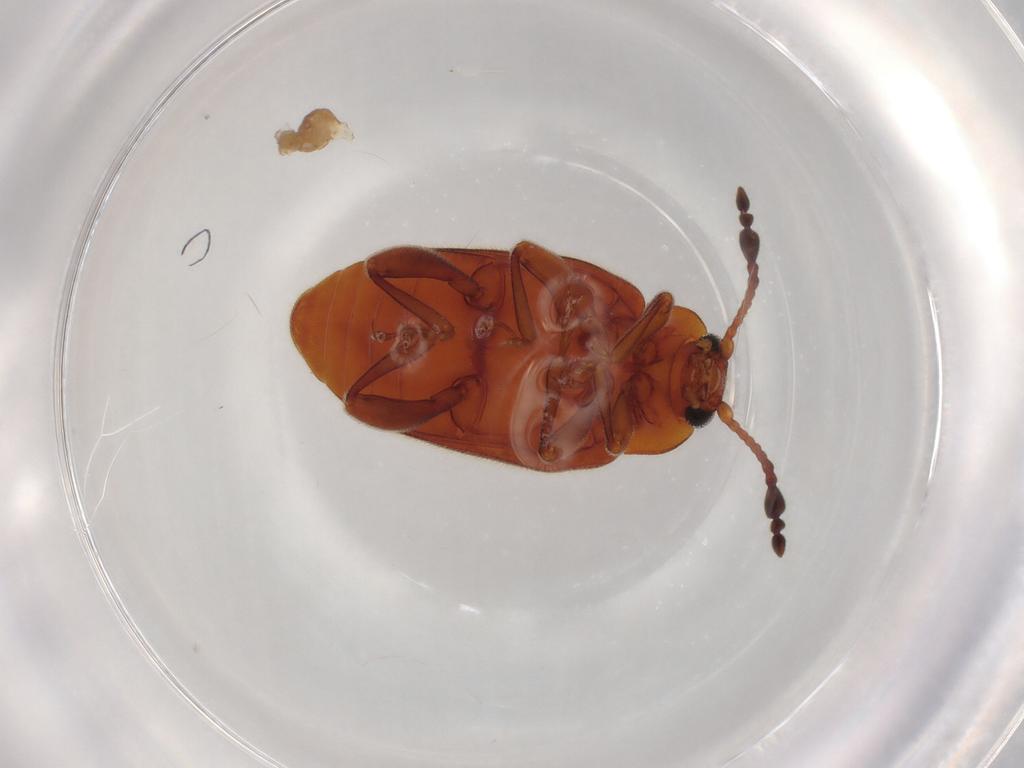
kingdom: Animalia
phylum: Arthropoda
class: Insecta
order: Coleoptera
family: Endomychidae
